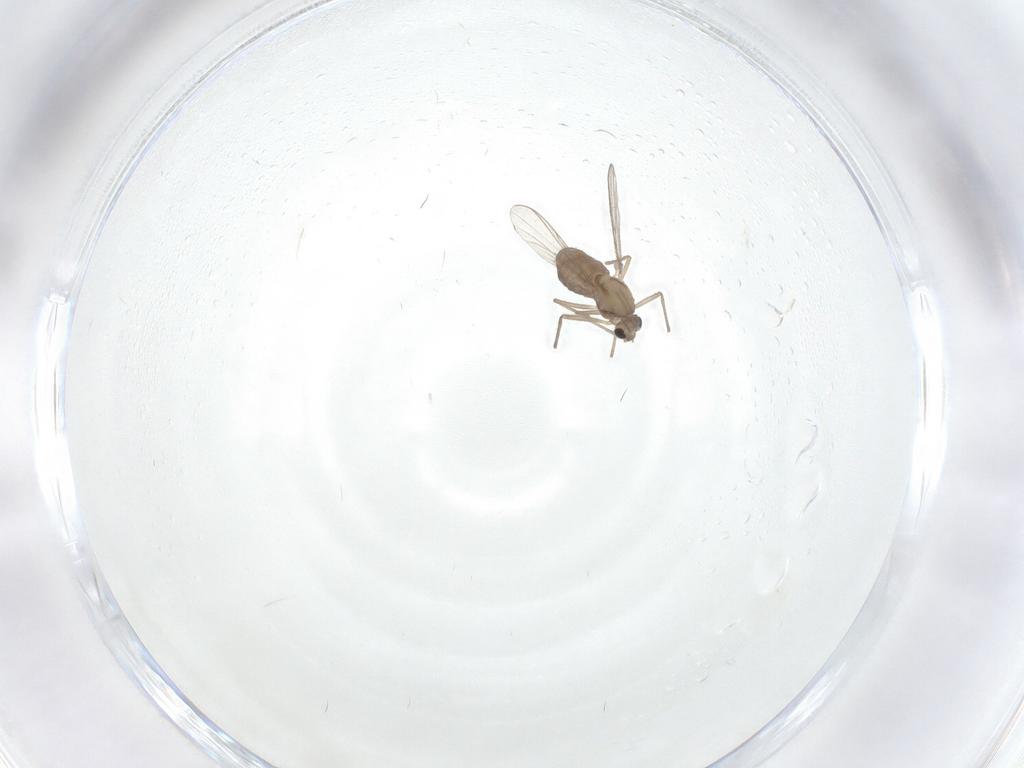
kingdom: Animalia
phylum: Arthropoda
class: Insecta
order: Diptera
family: Chironomidae
